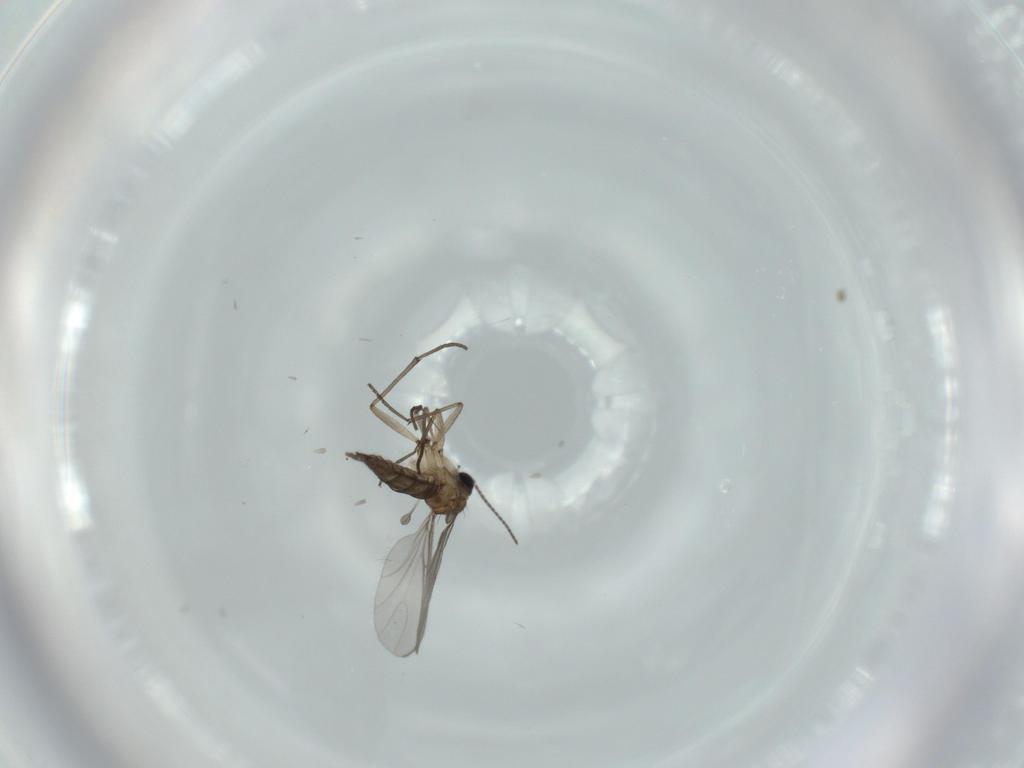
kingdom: Animalia
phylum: Arthropoda
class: Insecta
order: Diptera
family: Sciaridae
